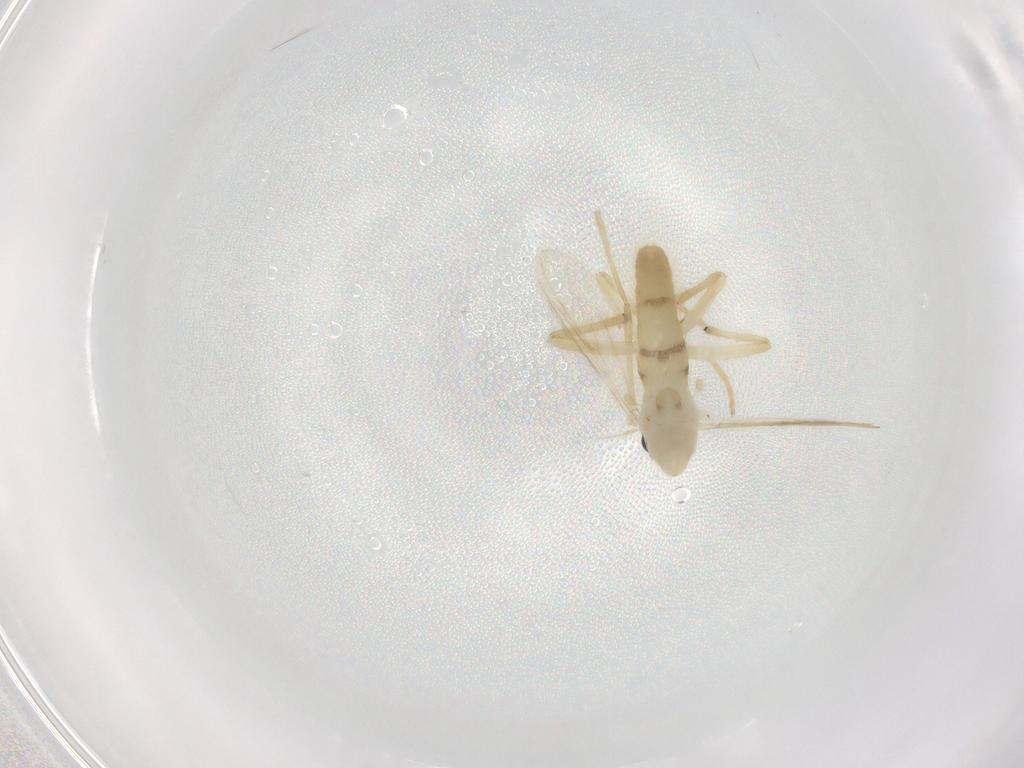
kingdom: Animalia
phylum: Arthropoda
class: Insecta
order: Diptera
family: Chironomidae
